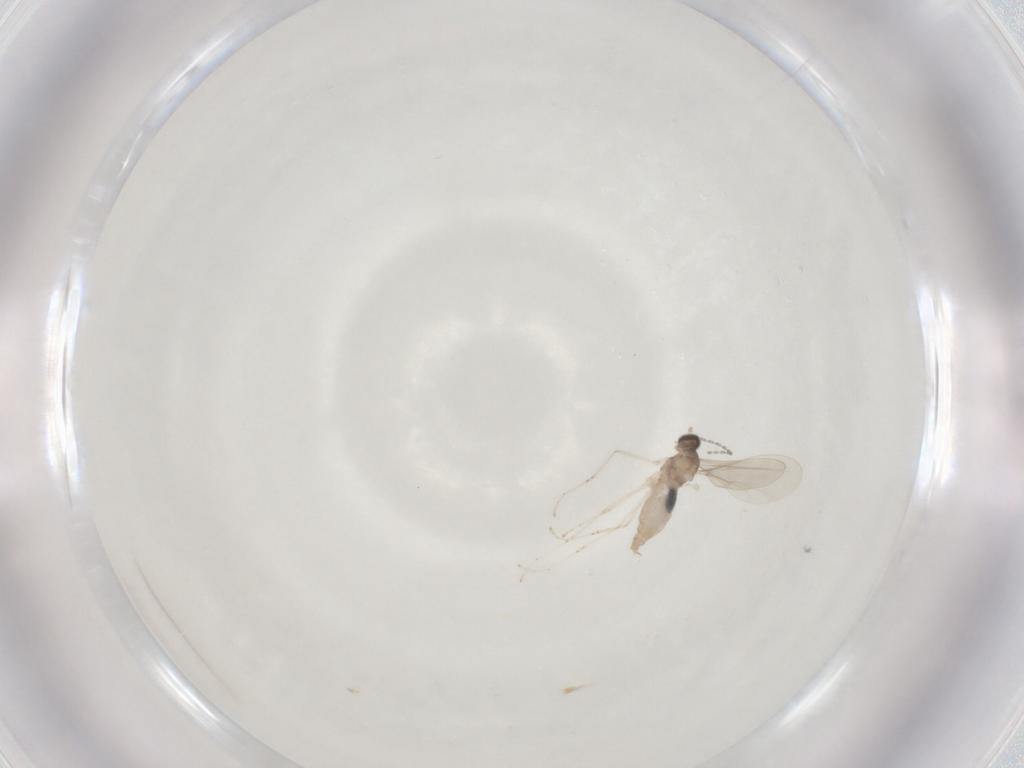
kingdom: Animalia
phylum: Arthropoda
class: Insecta
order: Diptera
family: Cecidomyiidae
